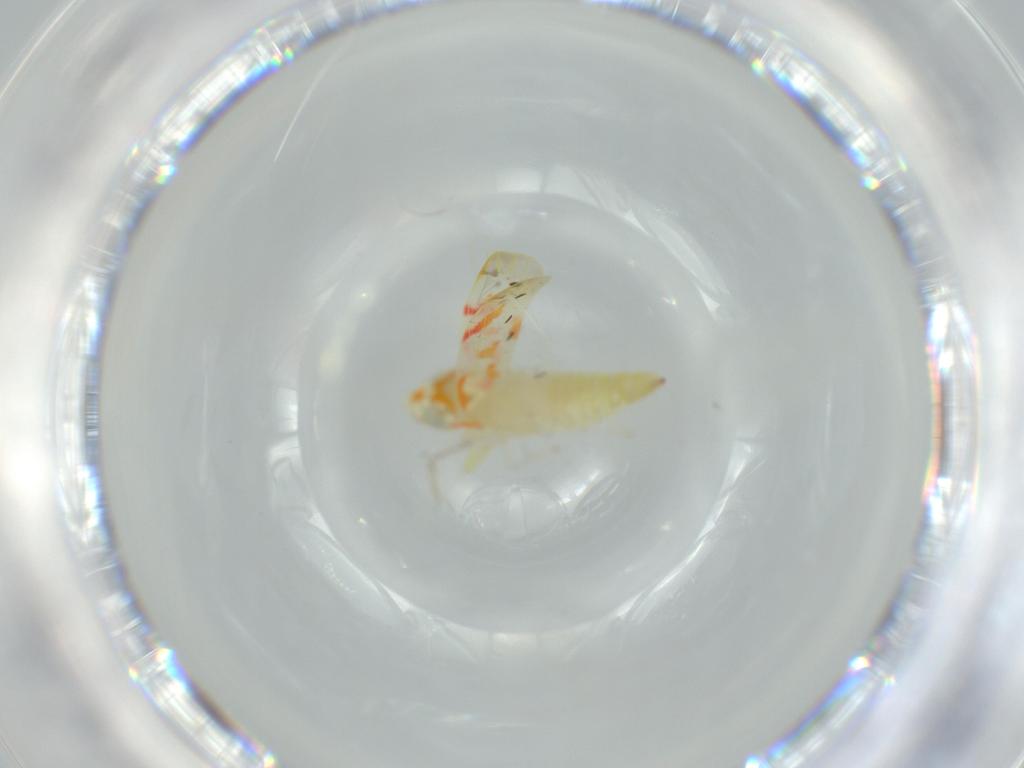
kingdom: Animalia
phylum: Arthropoda
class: Insecta
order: Hemiptera
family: Cicadellidae
